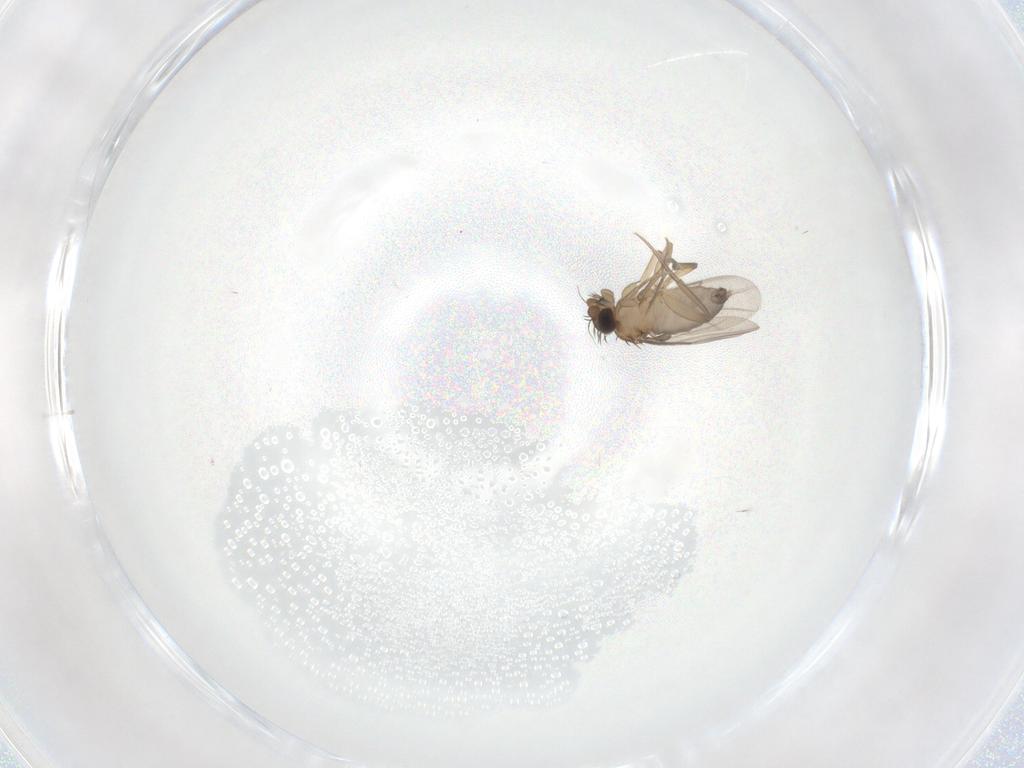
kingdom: Animalia
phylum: Arthropoda
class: Insecta
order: Diptera
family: Phoridae
